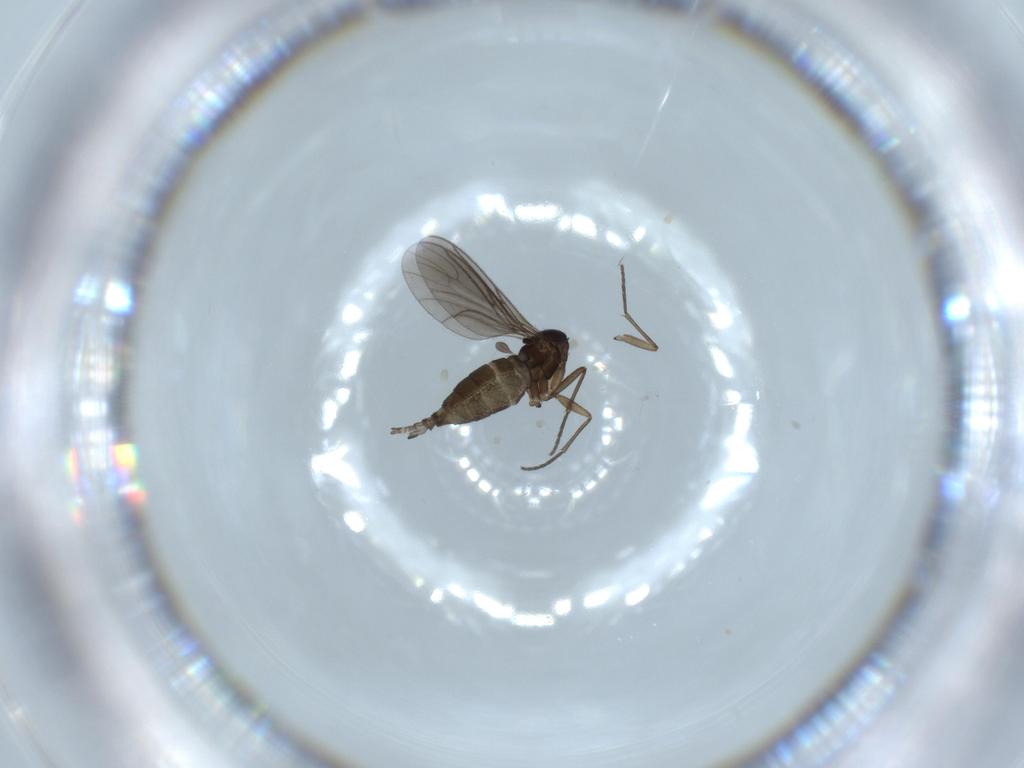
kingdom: Animalia
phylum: Arthropoda
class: Insecta
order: Diptera
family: Sciaridae
